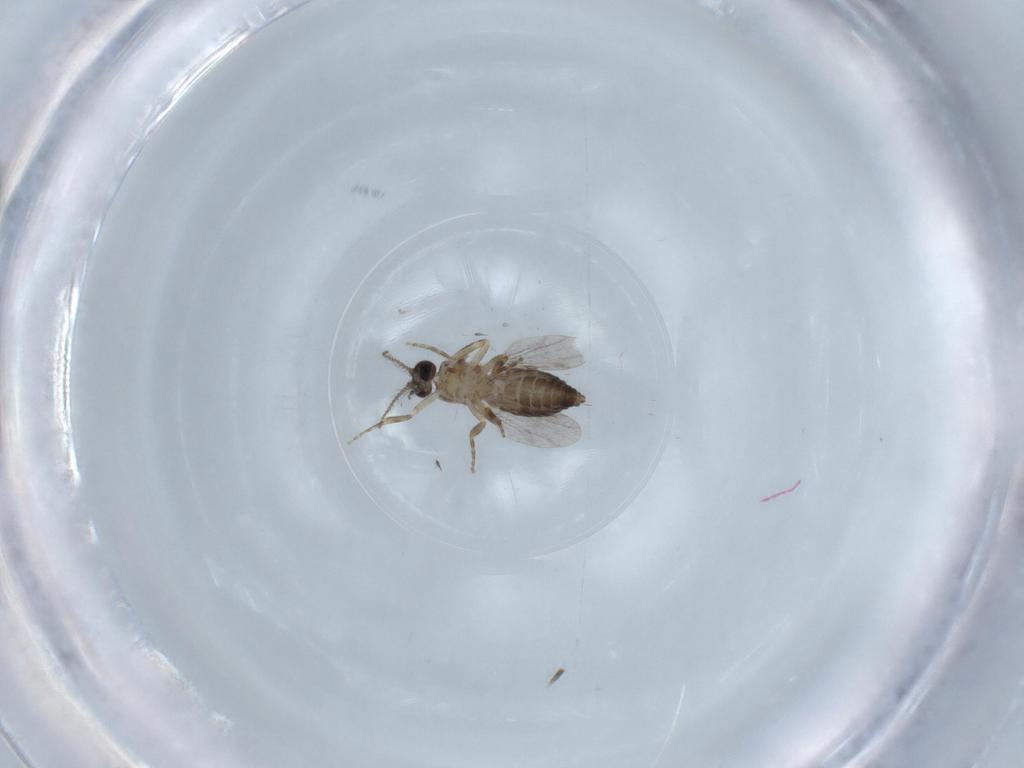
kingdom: Animalia
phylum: Arthropoda
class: Insecta
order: Diptera
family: Ceratopogonidae
